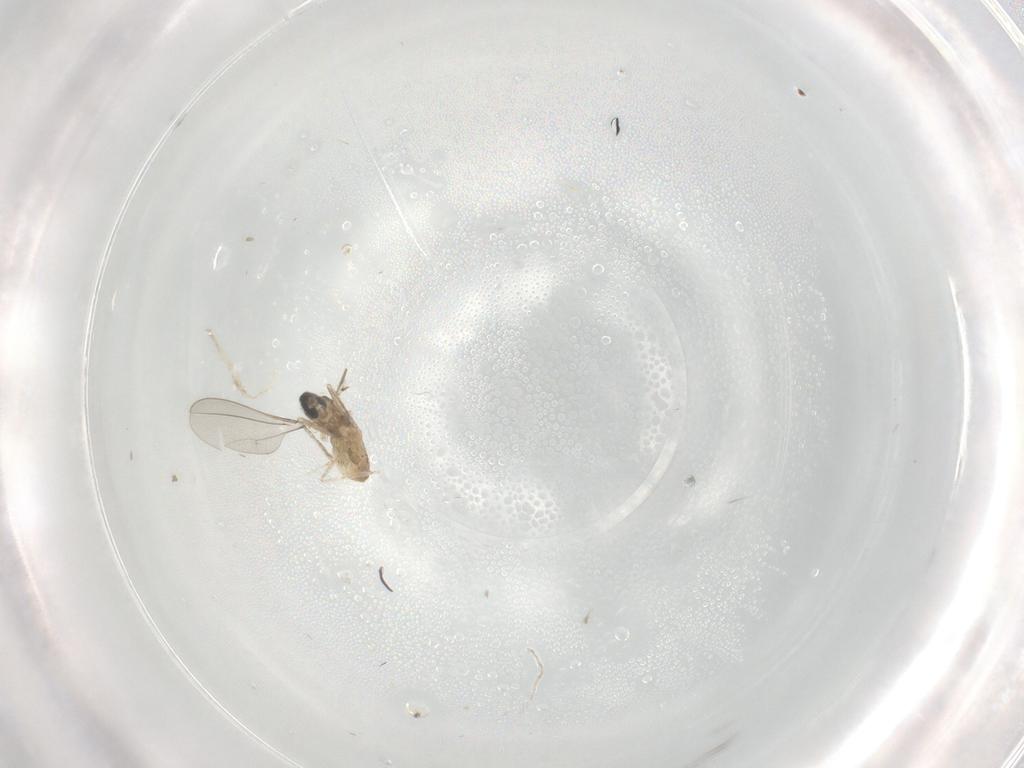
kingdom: Animalia
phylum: Arthropoda
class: Insecta
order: Diptera
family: Cecidomyiidae
